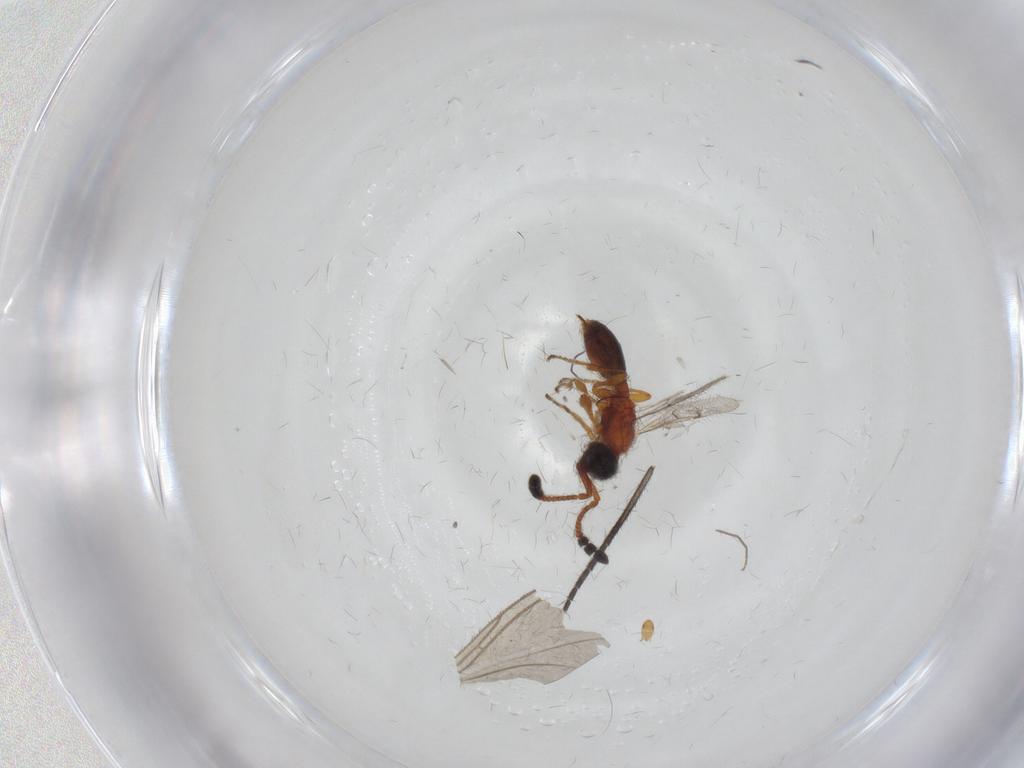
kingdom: Animalia
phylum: Arthropoda
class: Insecta
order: Hymenoptera
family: Diapriidae
